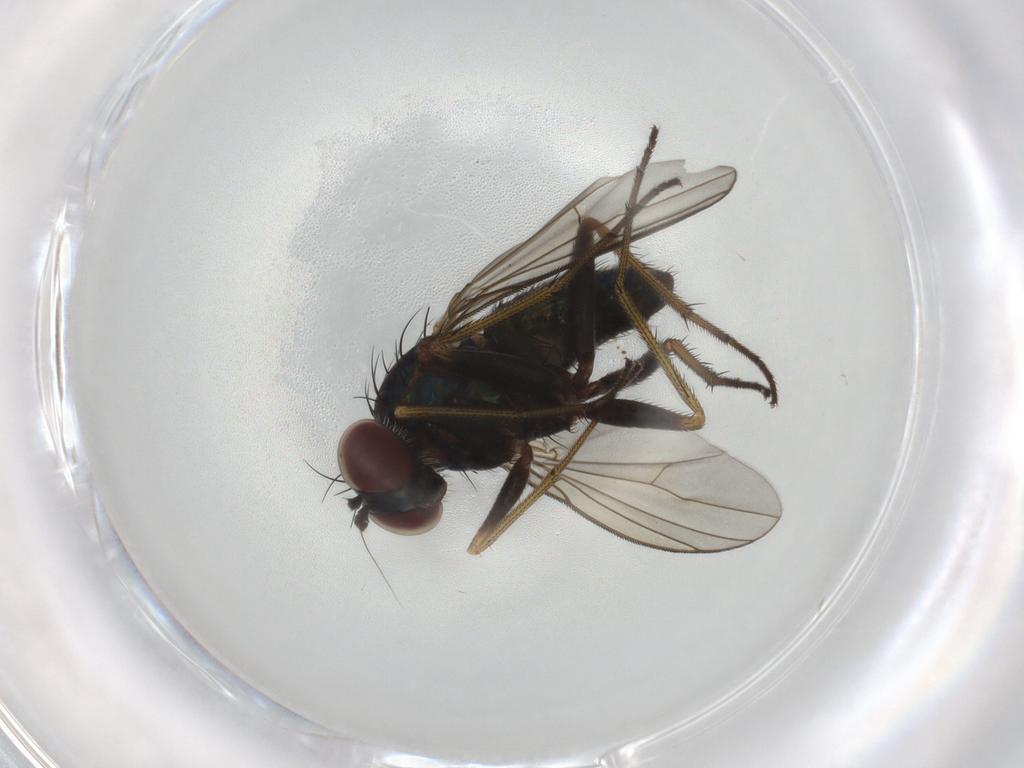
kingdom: Animalia
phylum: Arthropoda
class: Insecta
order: Diptera
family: Dolichopodidae
